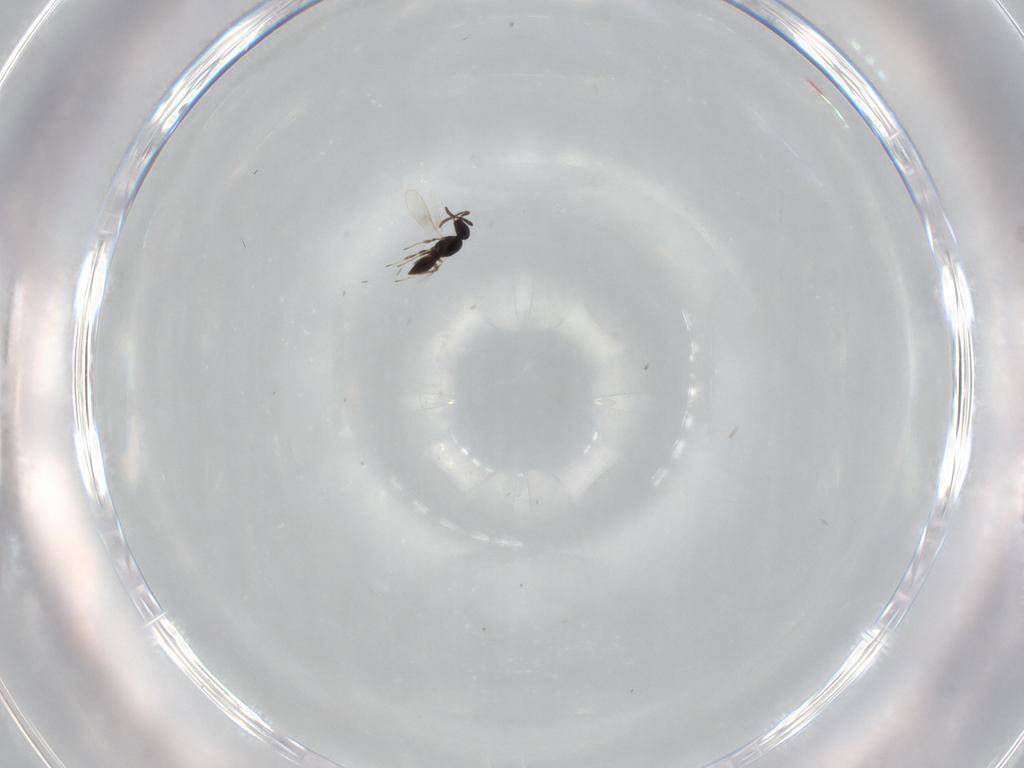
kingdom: Animalia
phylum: Arthropoda
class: Insecta
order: Hymenoptera
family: Scelionidae
